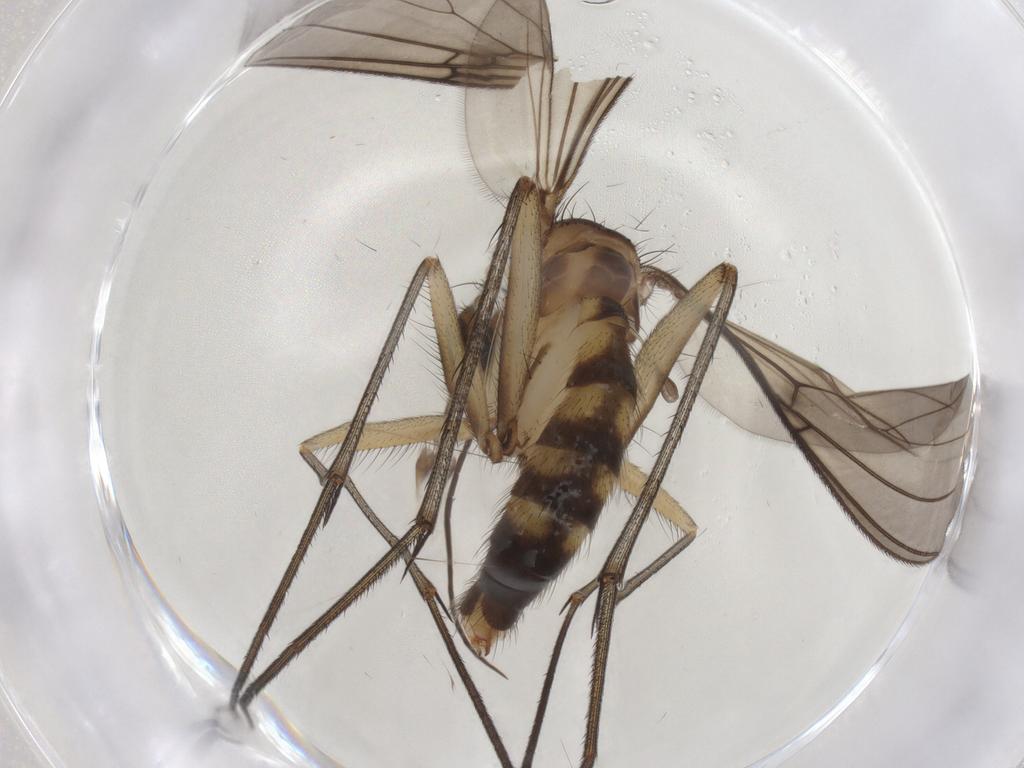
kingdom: Animalia
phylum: Arthropoda
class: Insecta
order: Diptera
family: Mycetophilidae
